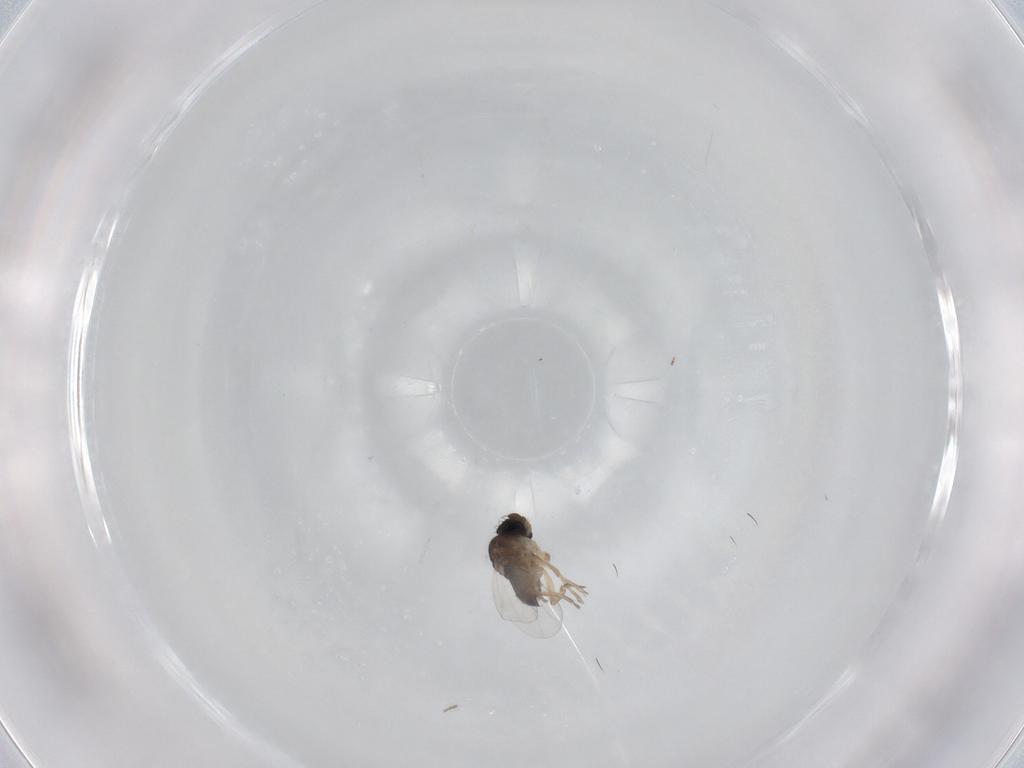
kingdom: Animalia
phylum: Arthropoda
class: Insecta
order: Diptera
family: Phoridae
